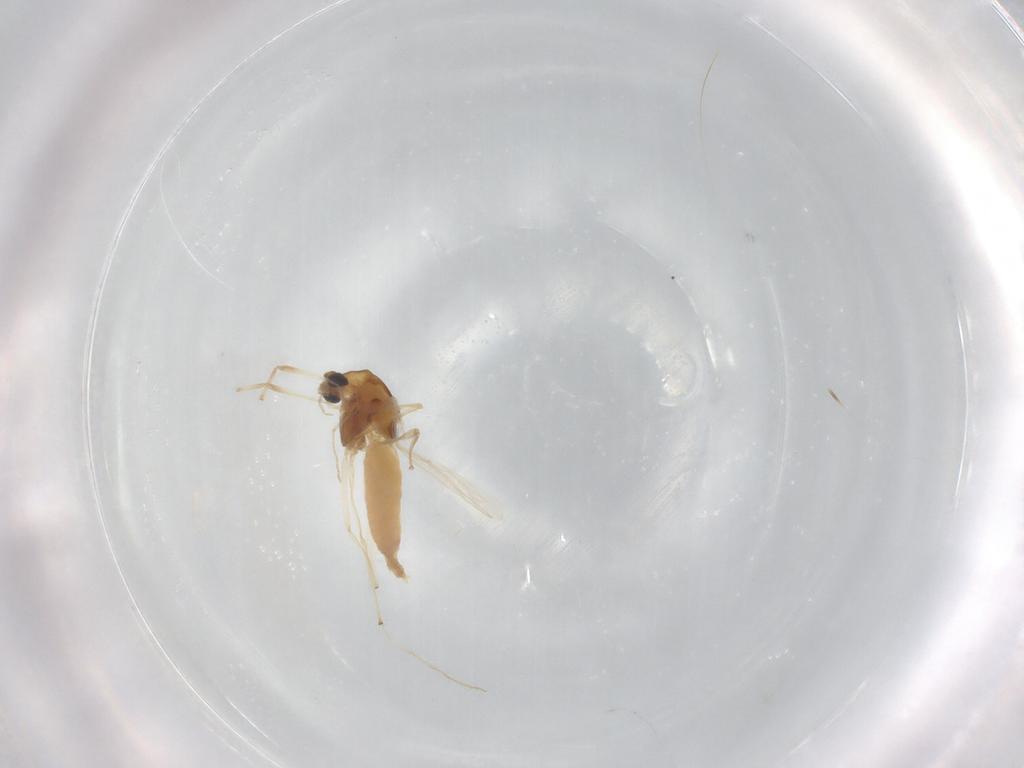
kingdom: Animalia
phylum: Arthropoda
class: Insecta
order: Diptera
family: Chironomidae
